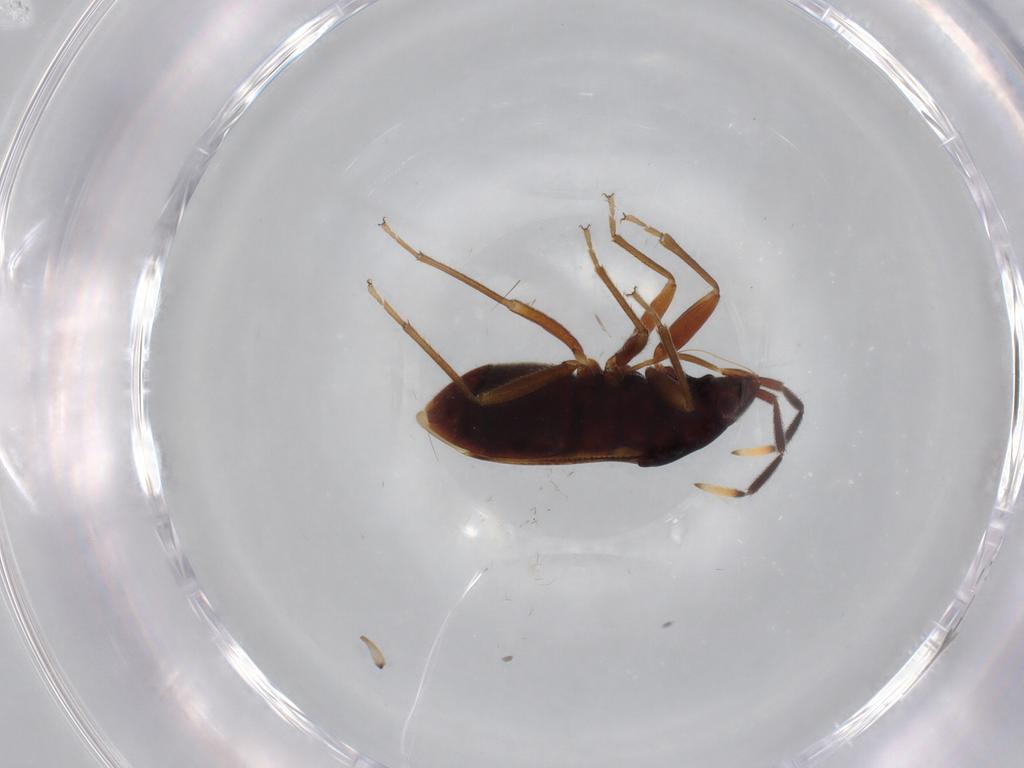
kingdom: Animalia
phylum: Arthropoda
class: Insecta
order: Hemiptera
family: Rhyparochromidae
